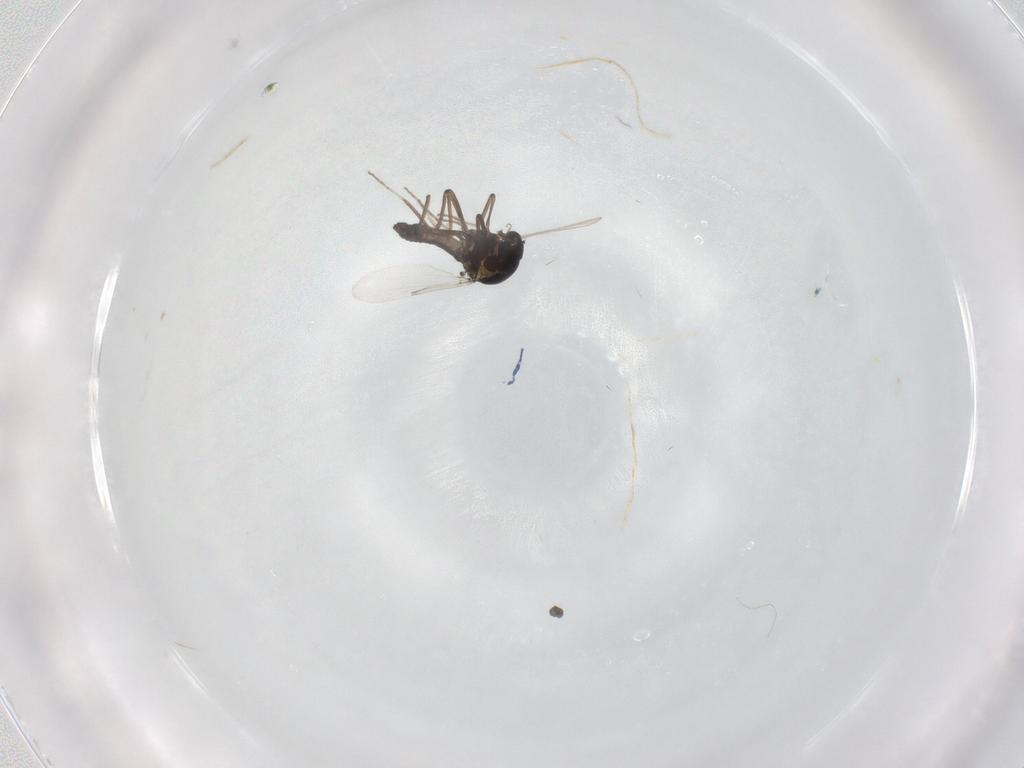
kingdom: Animalia
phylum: Arthropoda
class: Insecta
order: Diptera
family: Ceratopogonidae
